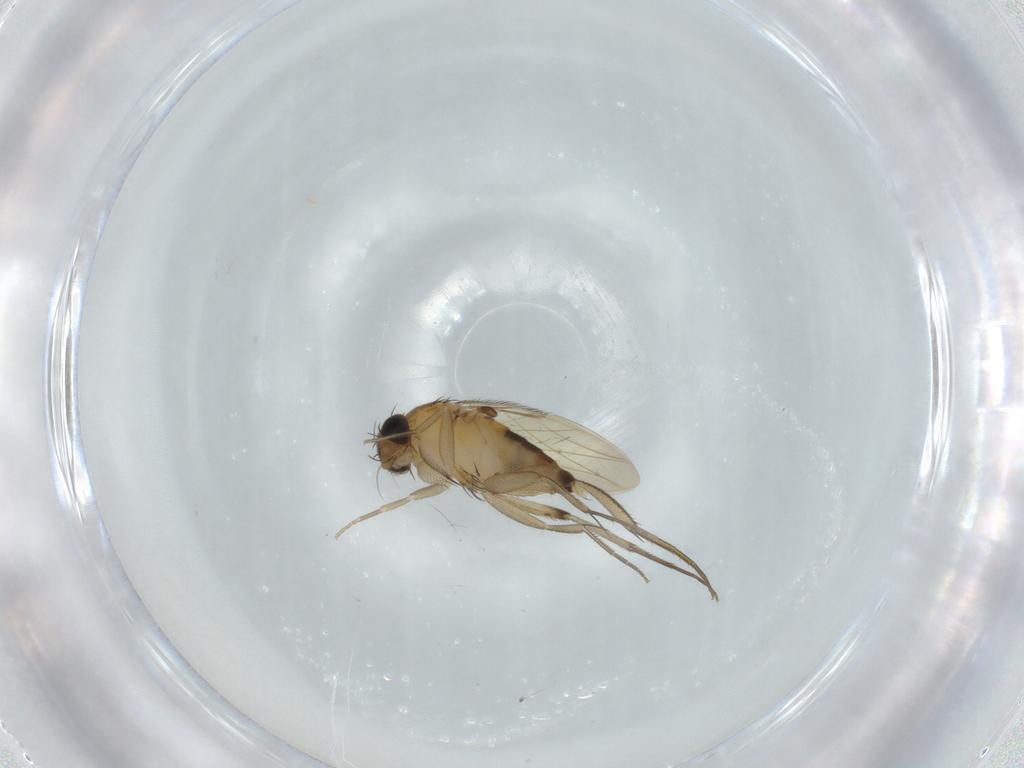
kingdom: Animalia
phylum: Arthropoda
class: Insecta
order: Diptera
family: Phoridae
